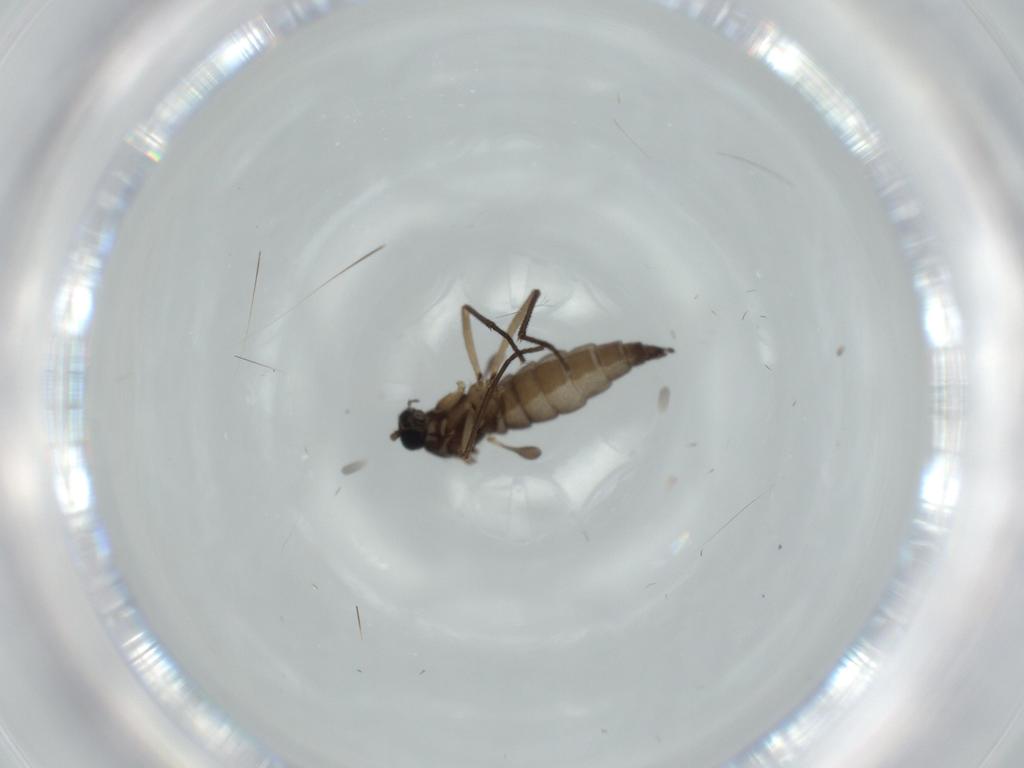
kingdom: Animalia
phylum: Arthropoda
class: Insecta
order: Diptera
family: Sciaridae
